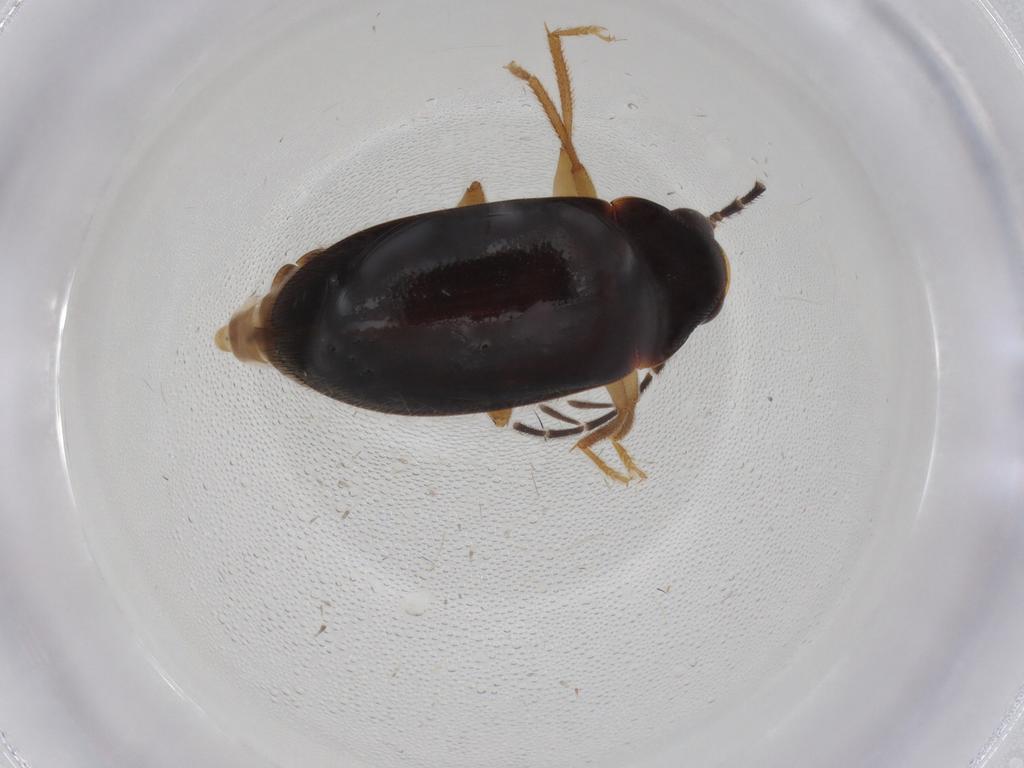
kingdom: Animalia
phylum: Arthropoda
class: Insecta
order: Coleoptera
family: Ptilodactylidae
